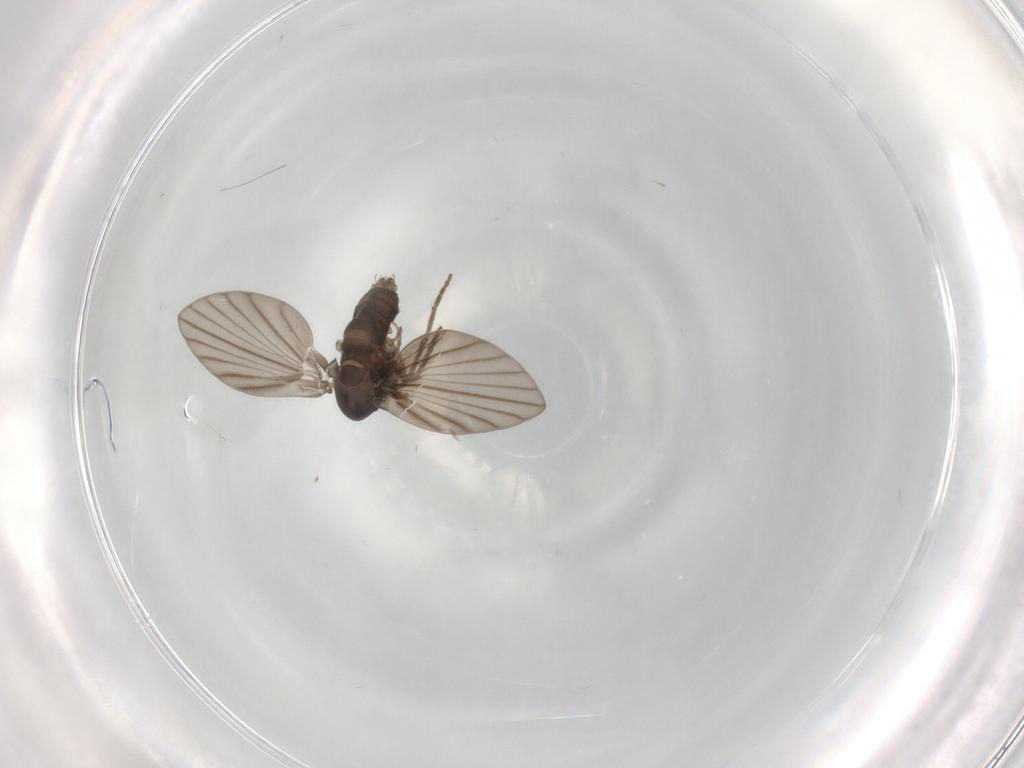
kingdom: Animalia
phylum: Arthropoda
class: Insecta
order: Diptera
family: Psychodidae
